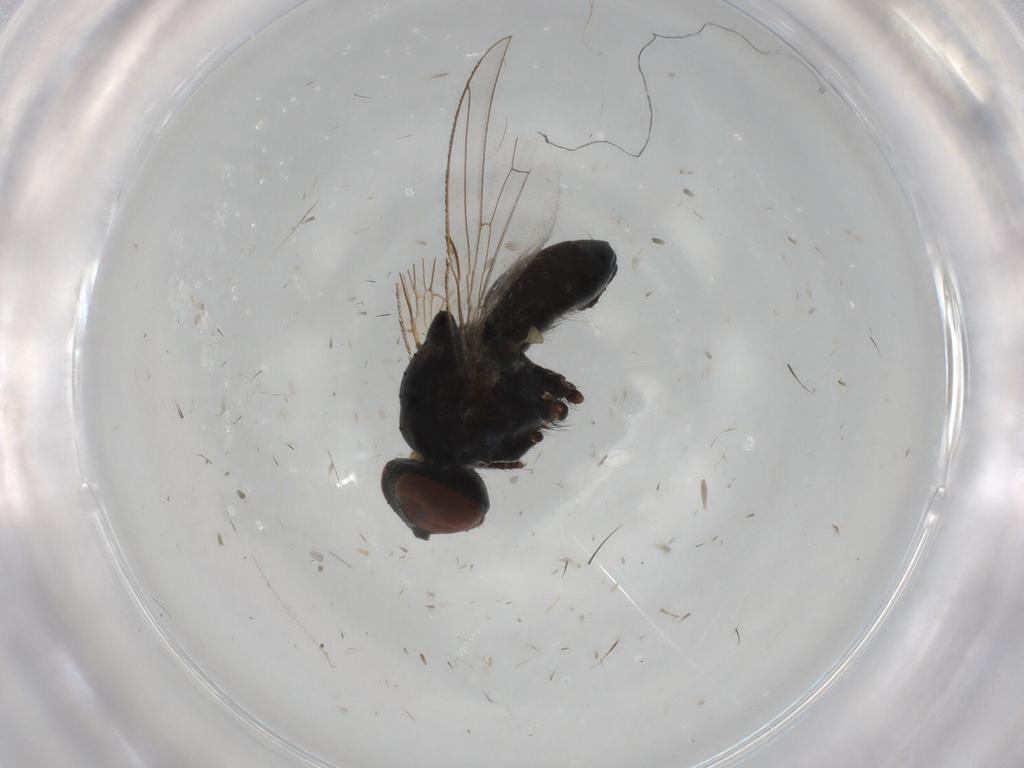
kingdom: Animalia
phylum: Arthropoda
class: Insecta
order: Diptera
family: Muscidae
